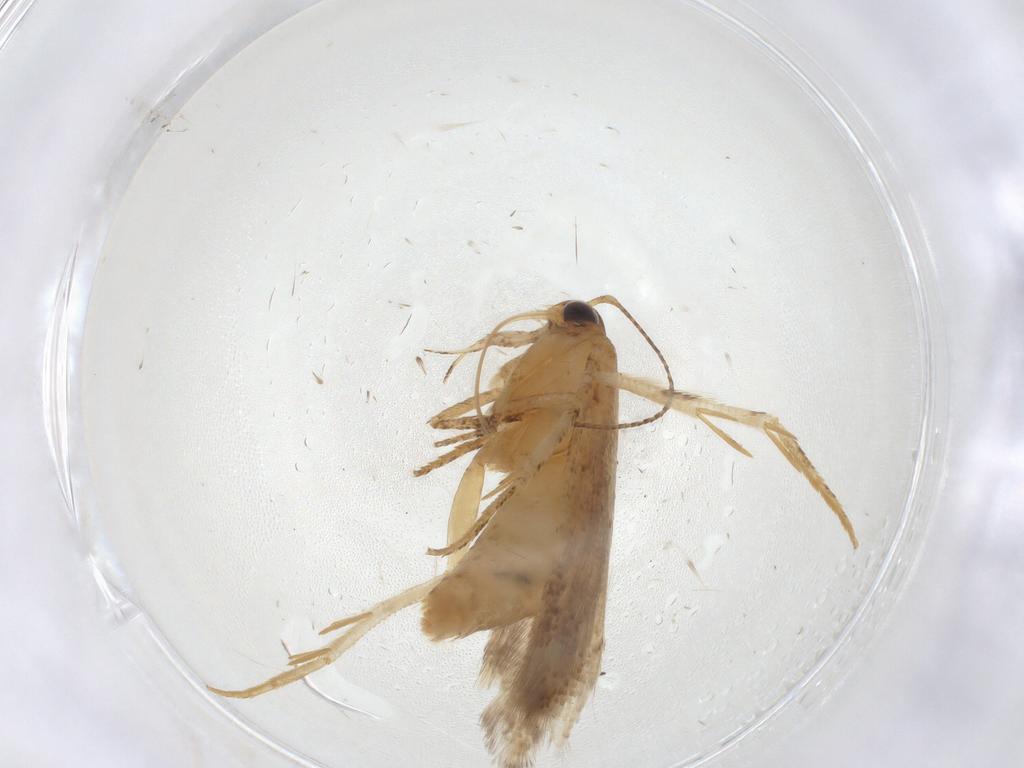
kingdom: Animalia
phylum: Arthropoda
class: Insecta
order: Lepidoptera
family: Gelechiidae
